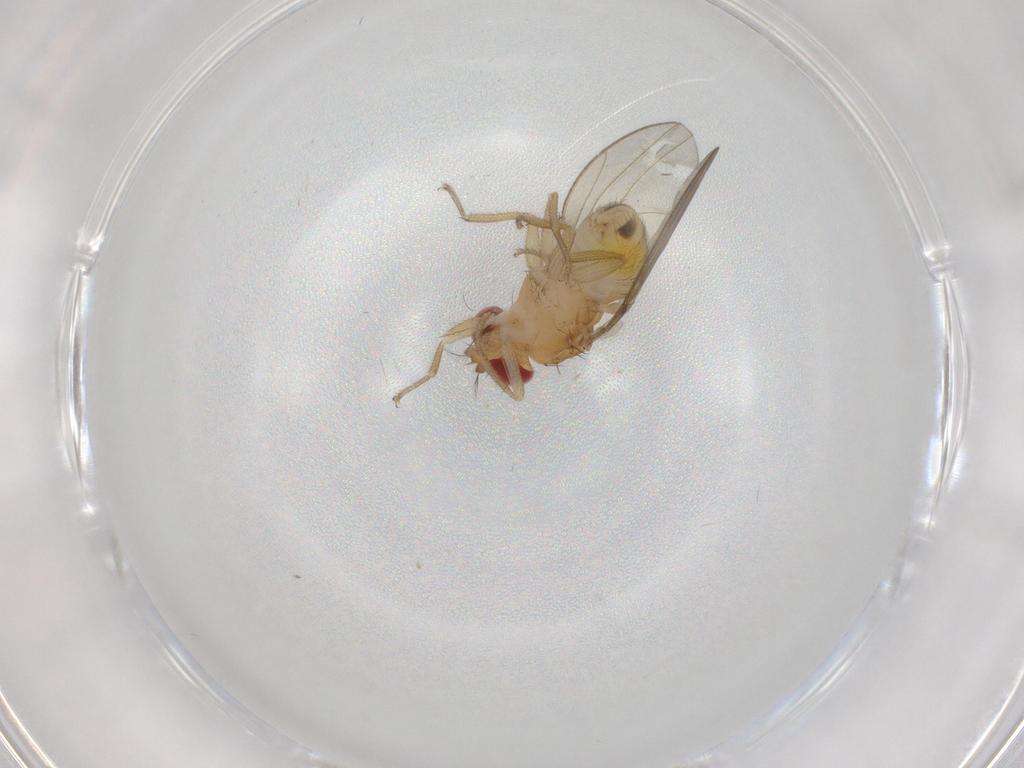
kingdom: Animalia
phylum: Arthropoda
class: Insecta
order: Diptera
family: Drosophilidae
